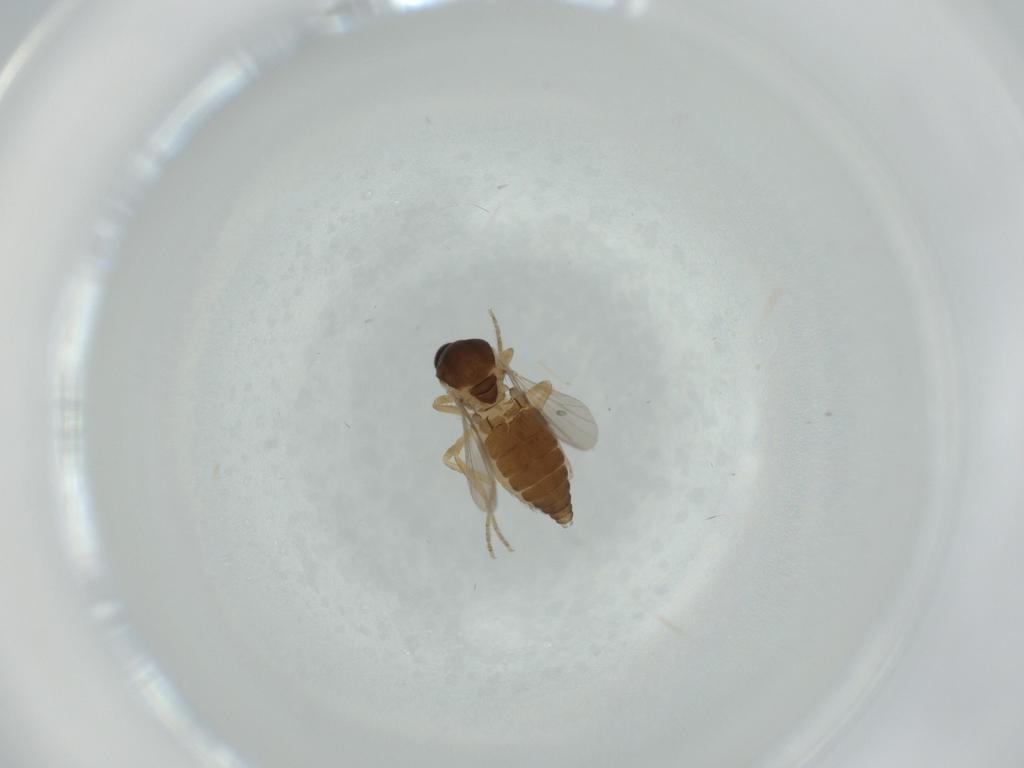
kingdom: Animalia
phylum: Arthropoda
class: Insecta
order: Diptera
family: Ceratopogonidae
